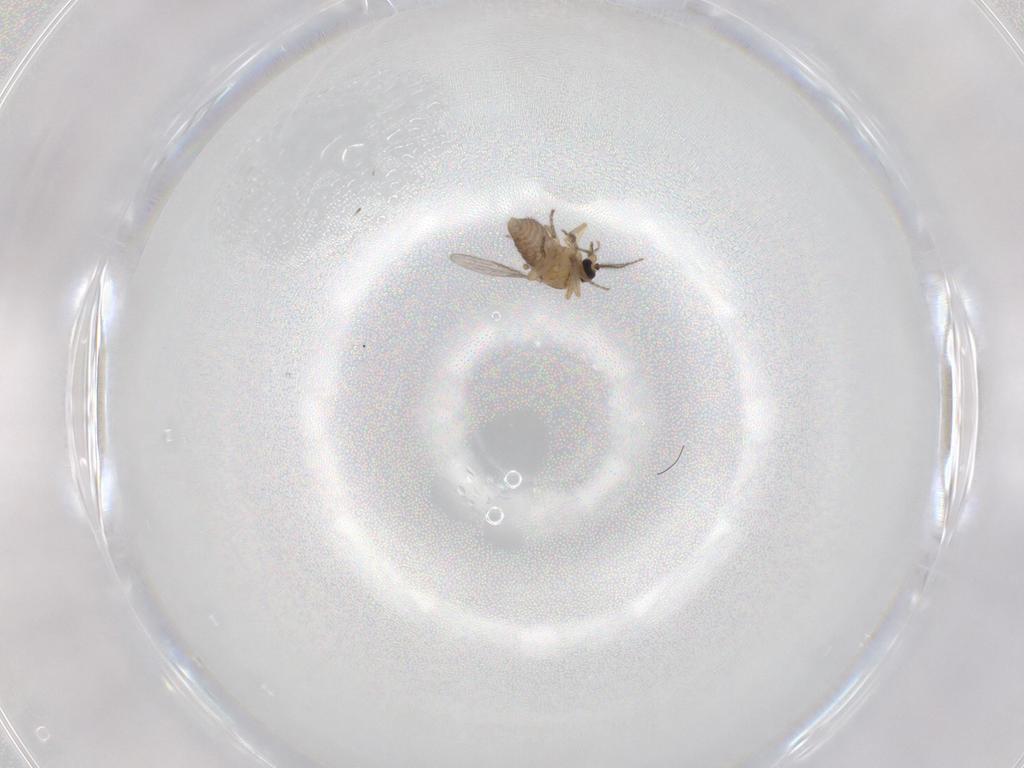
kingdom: Animalia
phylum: Arthropoda
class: Insecta
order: Diptera
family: Ceratopogonidae
